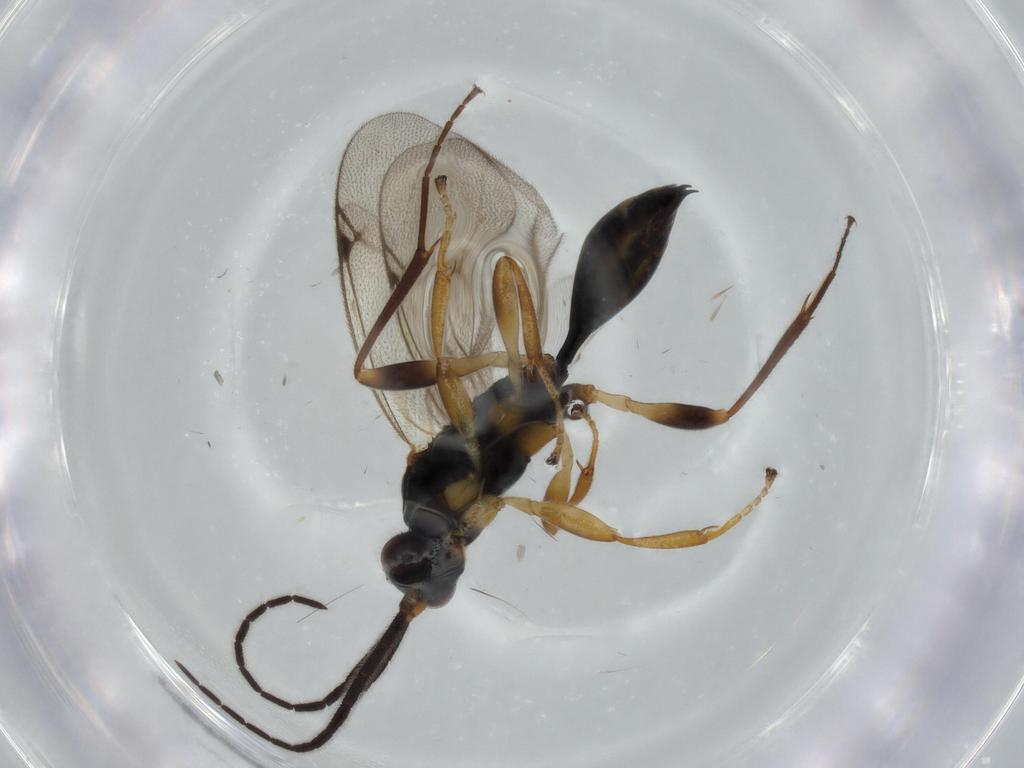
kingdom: Animalia
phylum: Arthropoda
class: Insecta
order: Hymenoptera
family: Proctotrupidae
